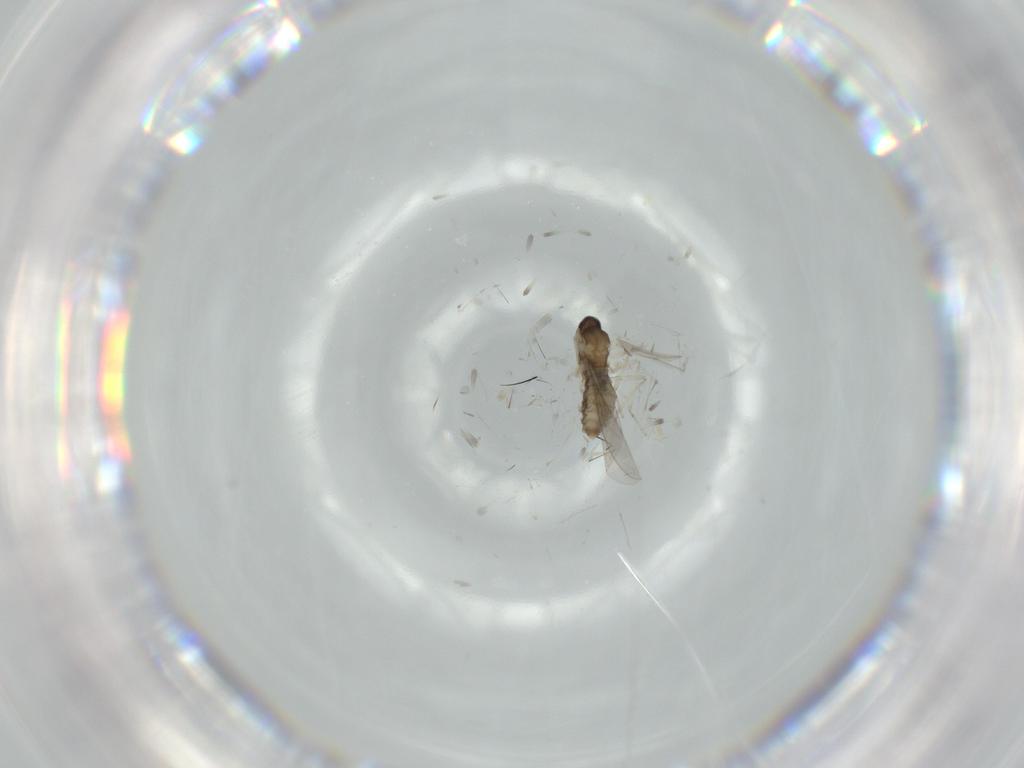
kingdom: Animalia
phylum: Arthropoda
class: Insecta
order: Diptera
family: Cecidomyiidae
